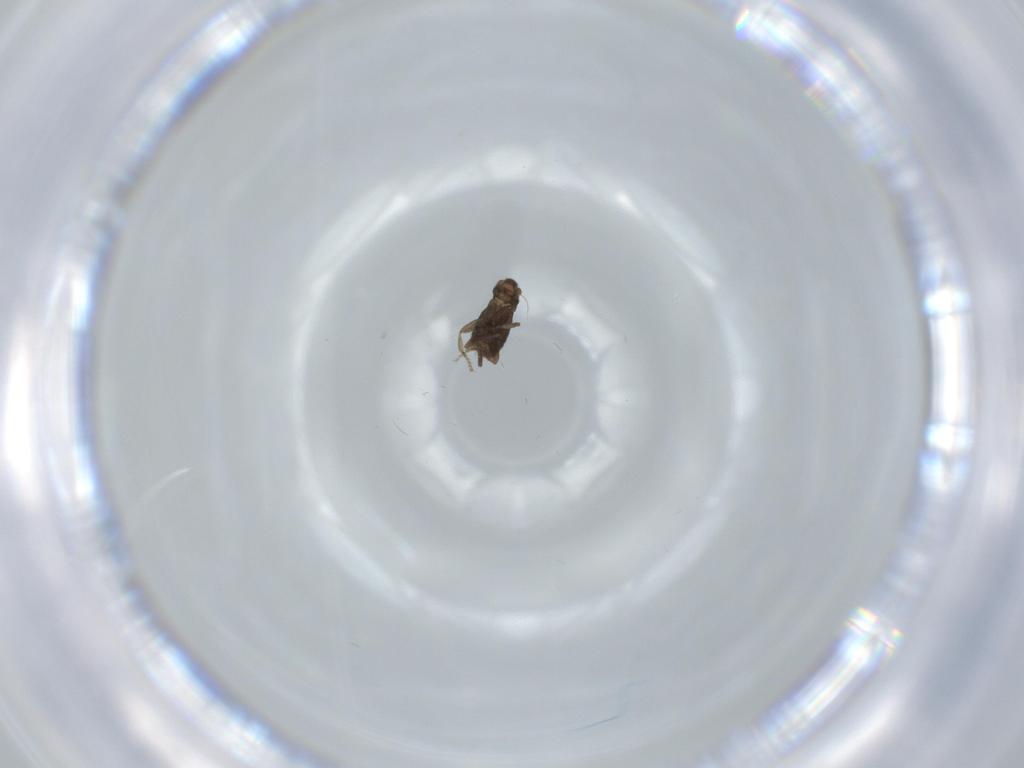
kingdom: Animalia
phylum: Arthropoda
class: Insecta
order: Diptera
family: Phoridae
